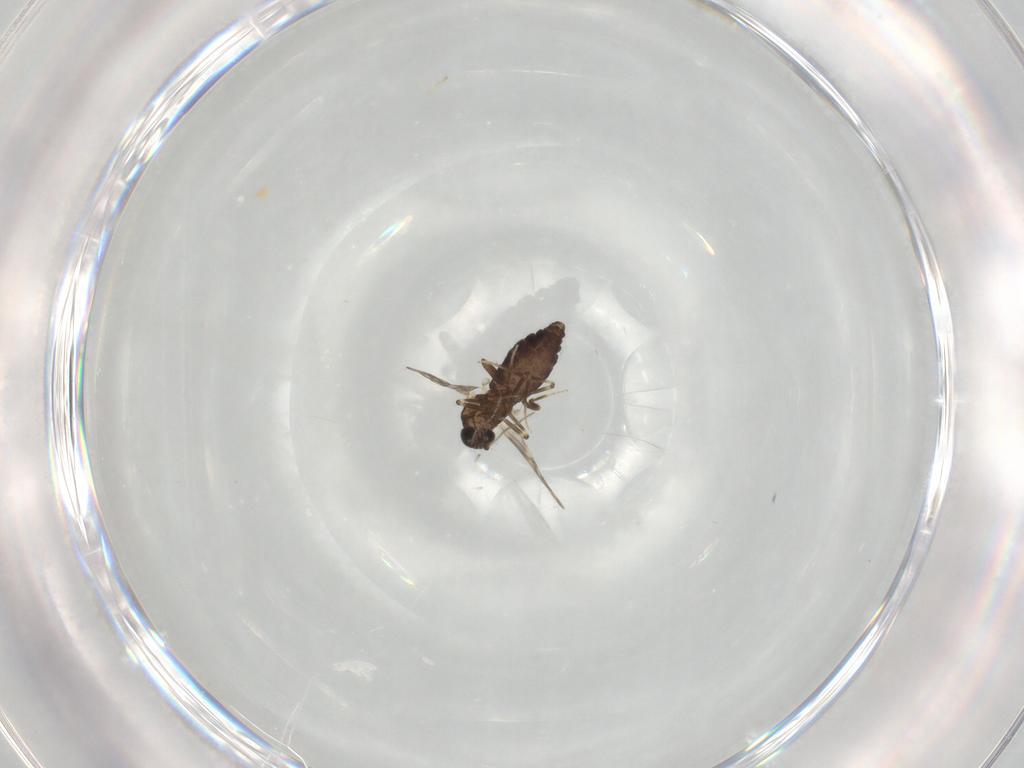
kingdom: Animalia
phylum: Arthropoda
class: Insecta
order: Diptera
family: Ceratopogonidae
